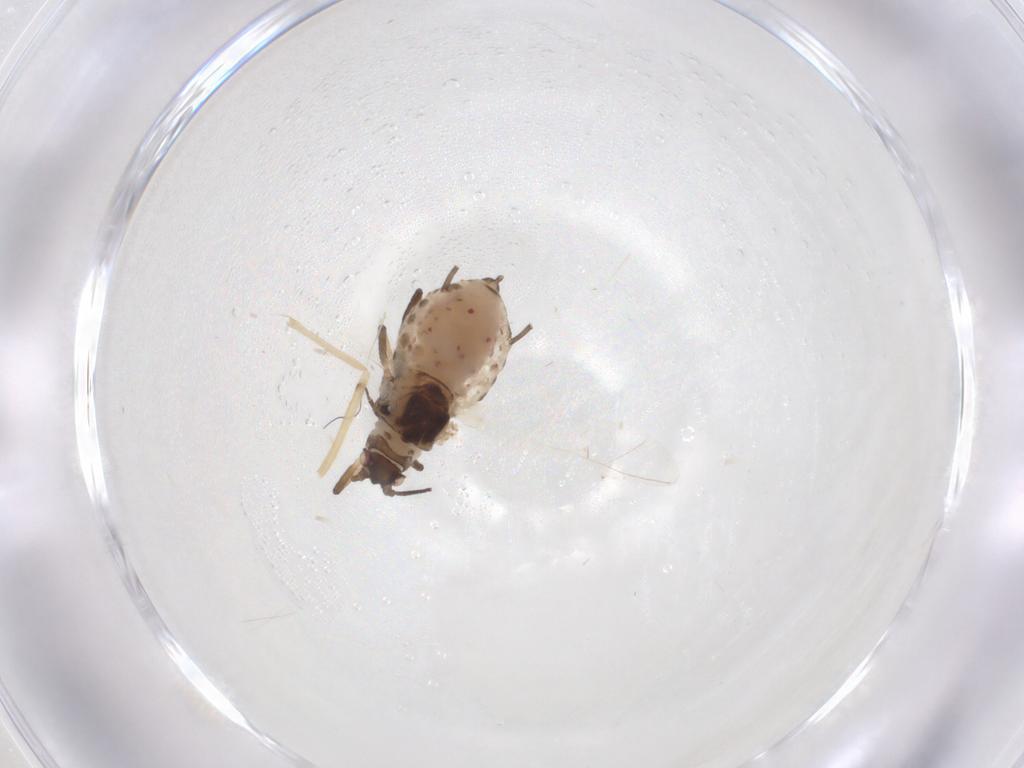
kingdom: Animalia
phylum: Arthropoda
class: Insecta
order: Hemiptera
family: Aphididae
